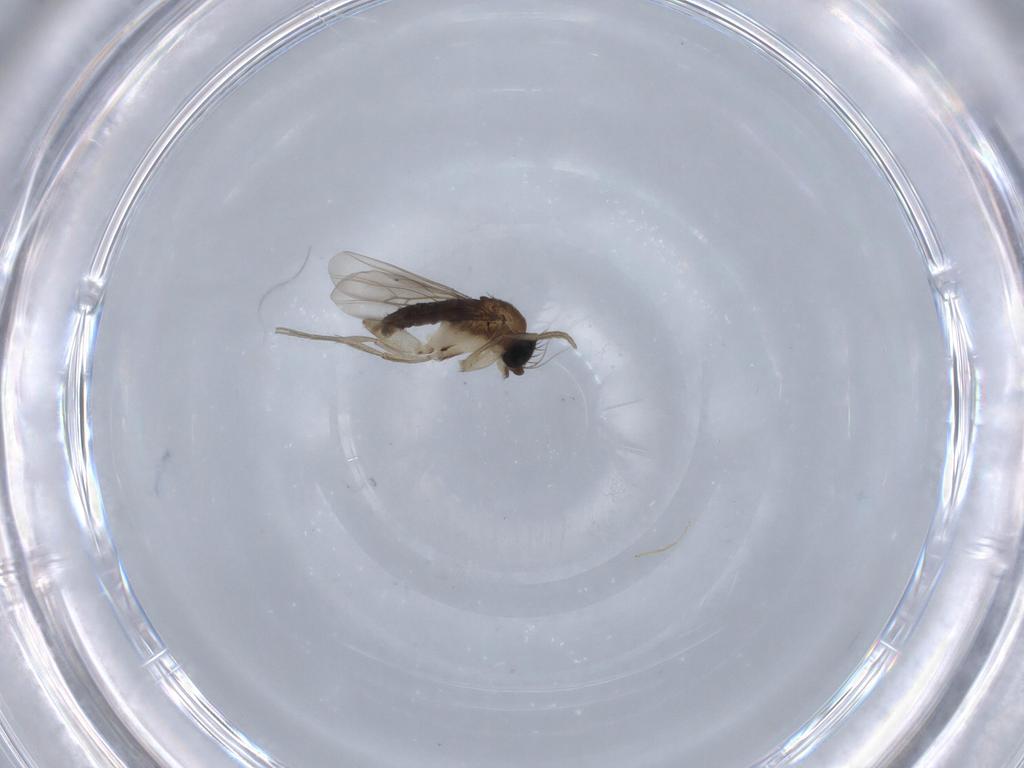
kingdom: Animalia
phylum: Arthropoda
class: Insecta
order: Diptera
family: Phoridae
